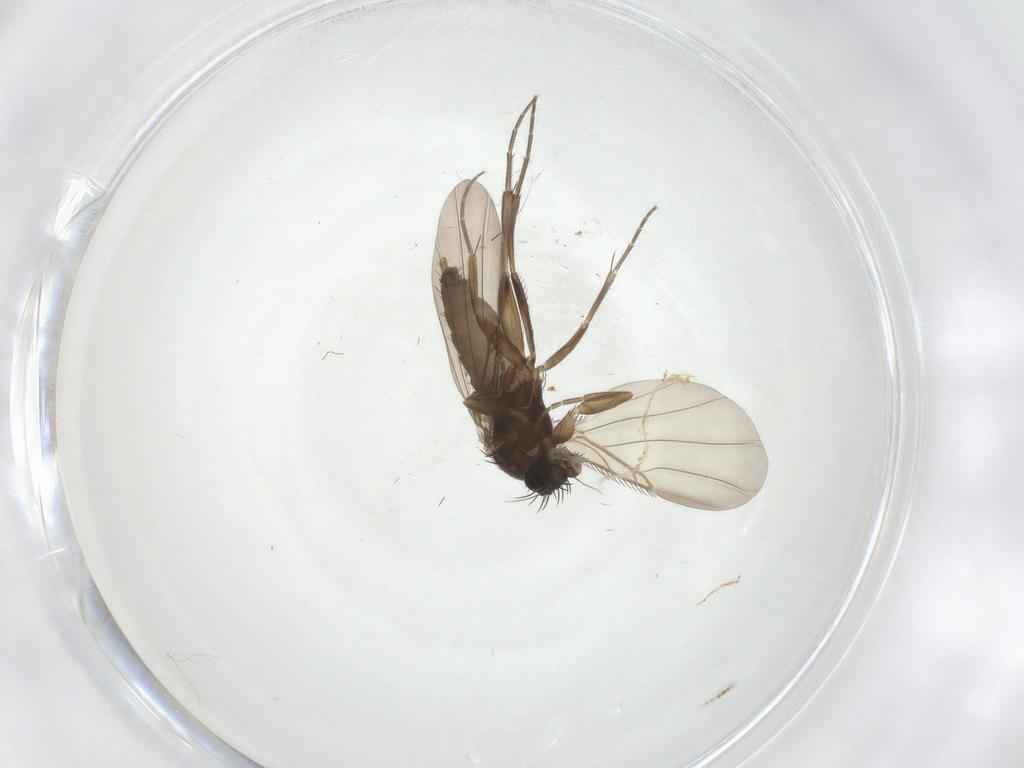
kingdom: Animalia
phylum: Arthropoda
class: Insecta
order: Diptera
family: Phoridae
